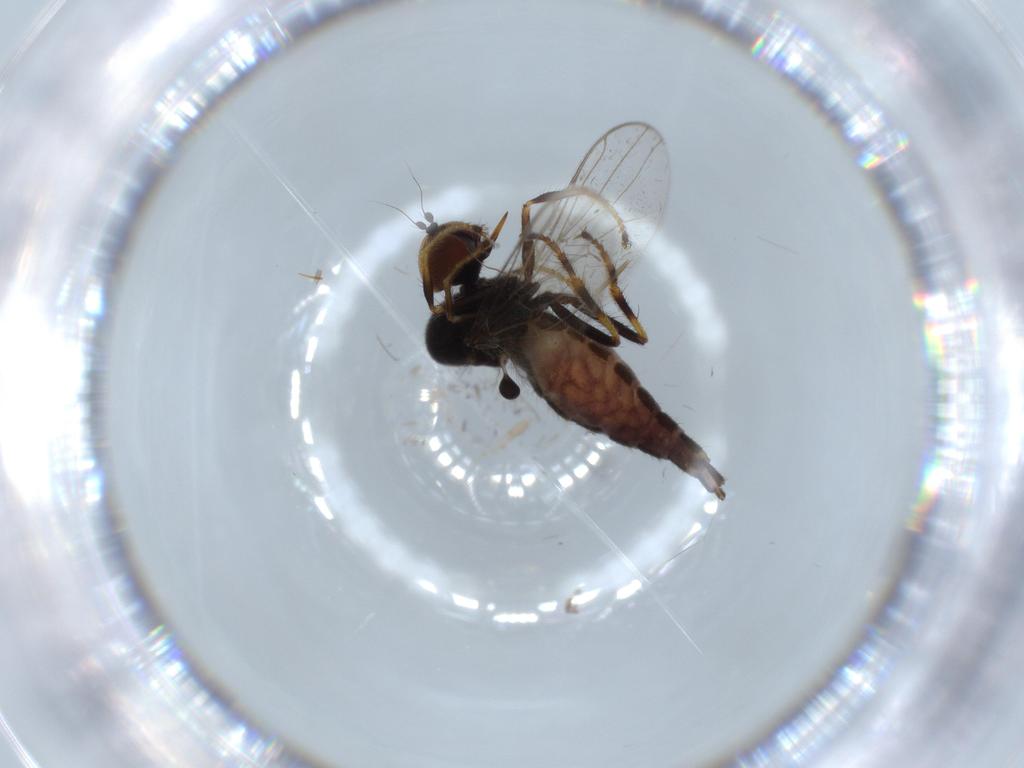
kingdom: Animalia
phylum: Arthropoda
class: Insecta
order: Diptera
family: Hybotidae
